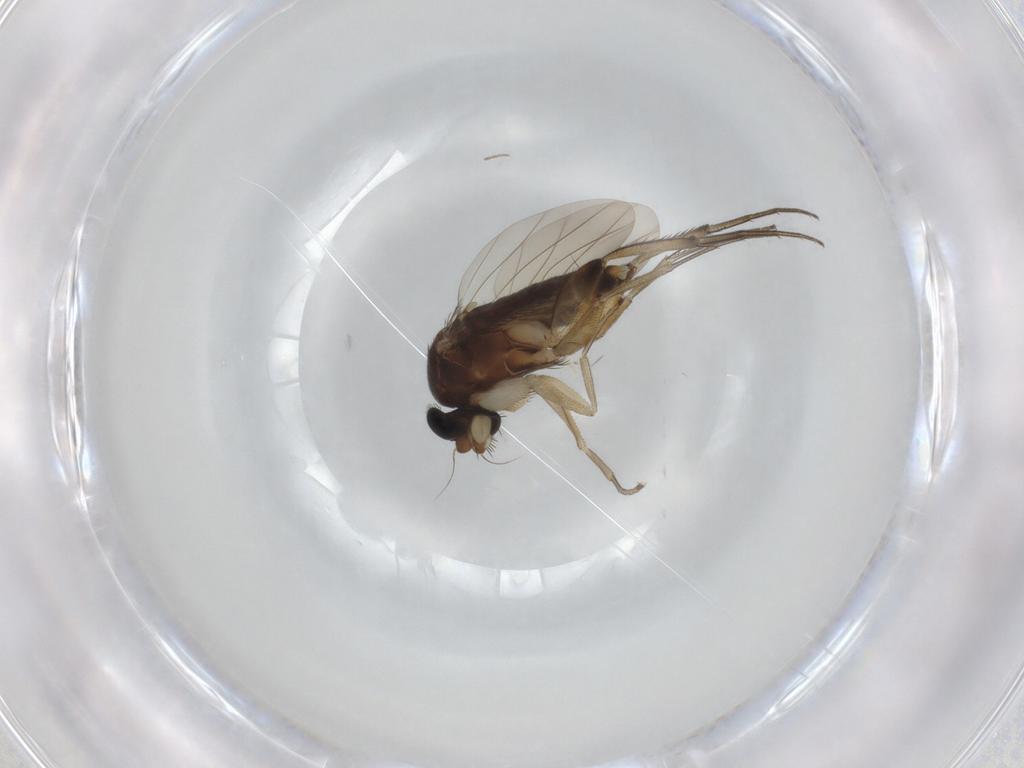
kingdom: Animalia
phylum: Arthropoda
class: Insecta
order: Diptera
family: Phoridae
